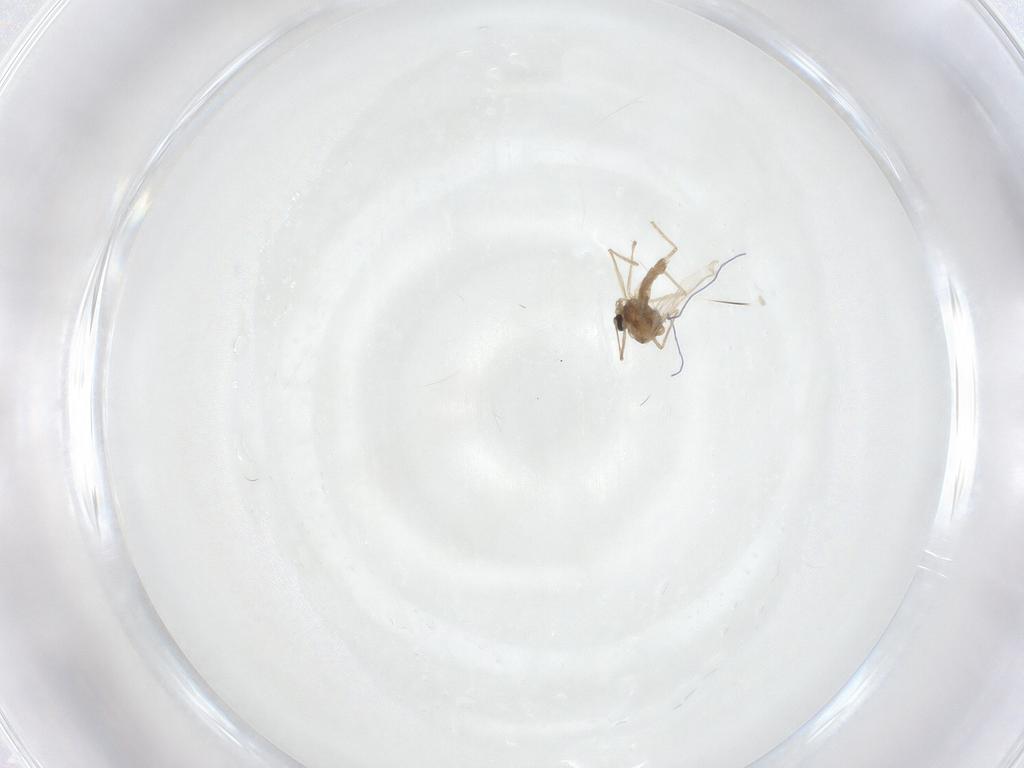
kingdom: Animalia
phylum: Arthropoda
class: Insecta
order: Diptera
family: Chironomidae
